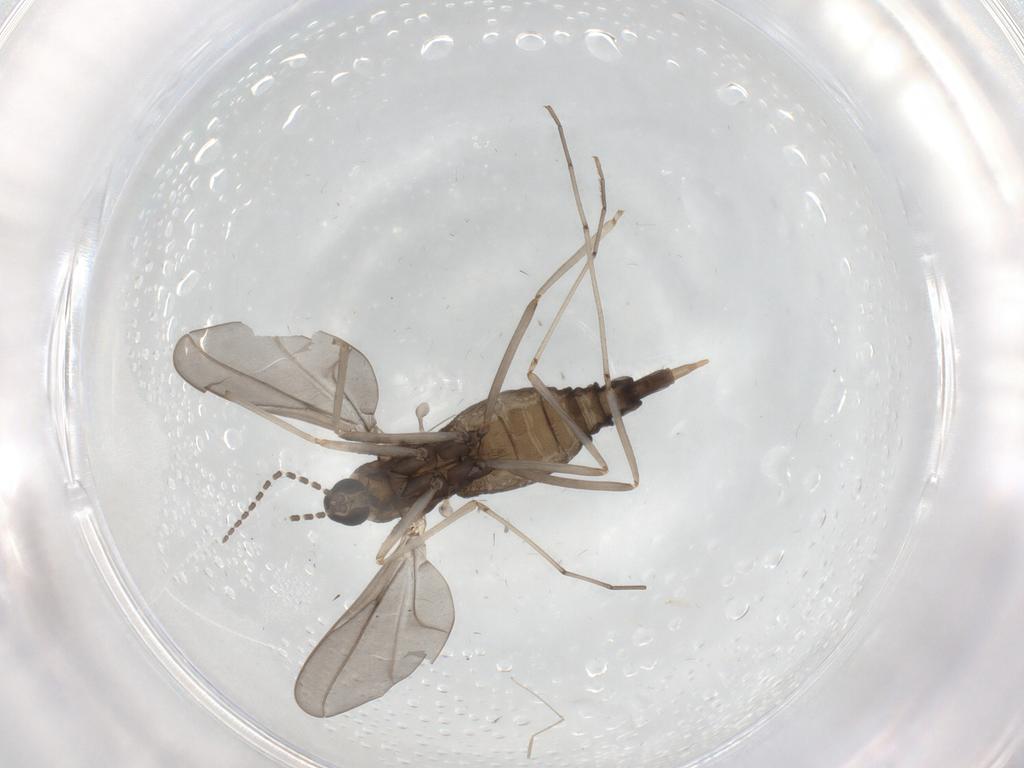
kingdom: Animalia
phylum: Arthropoda
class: Insecta
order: Diptera
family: Cecidomyiidae
